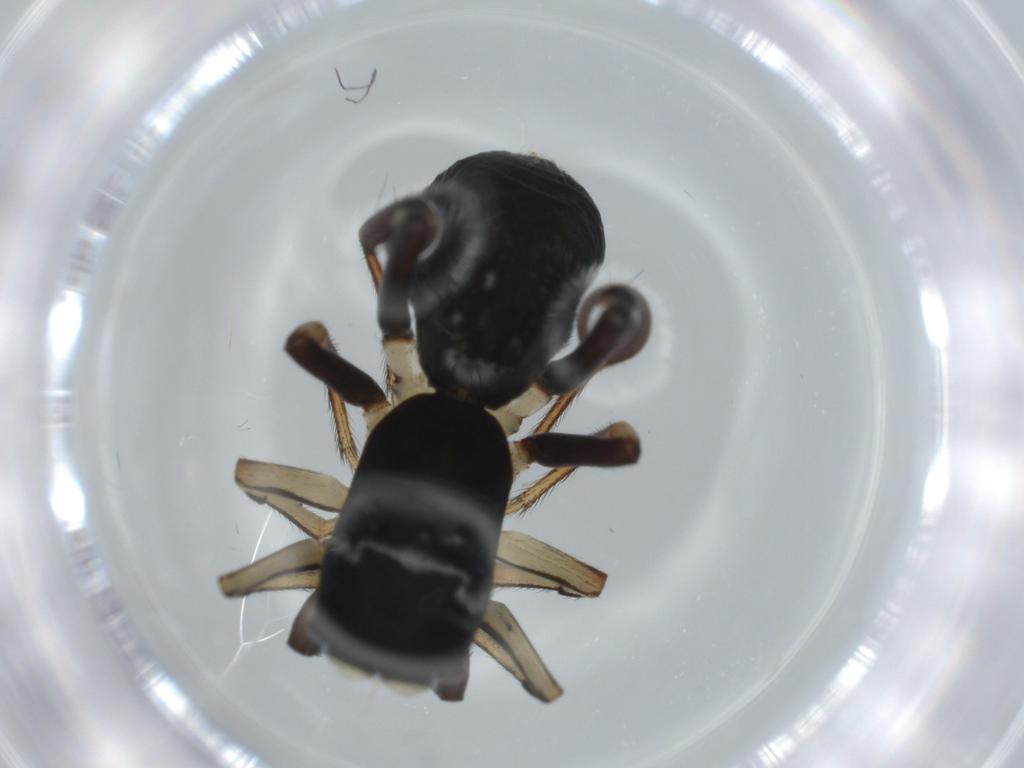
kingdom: Animalia
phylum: Arthropoda
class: Arachnida
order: Araneae
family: Salticidae
